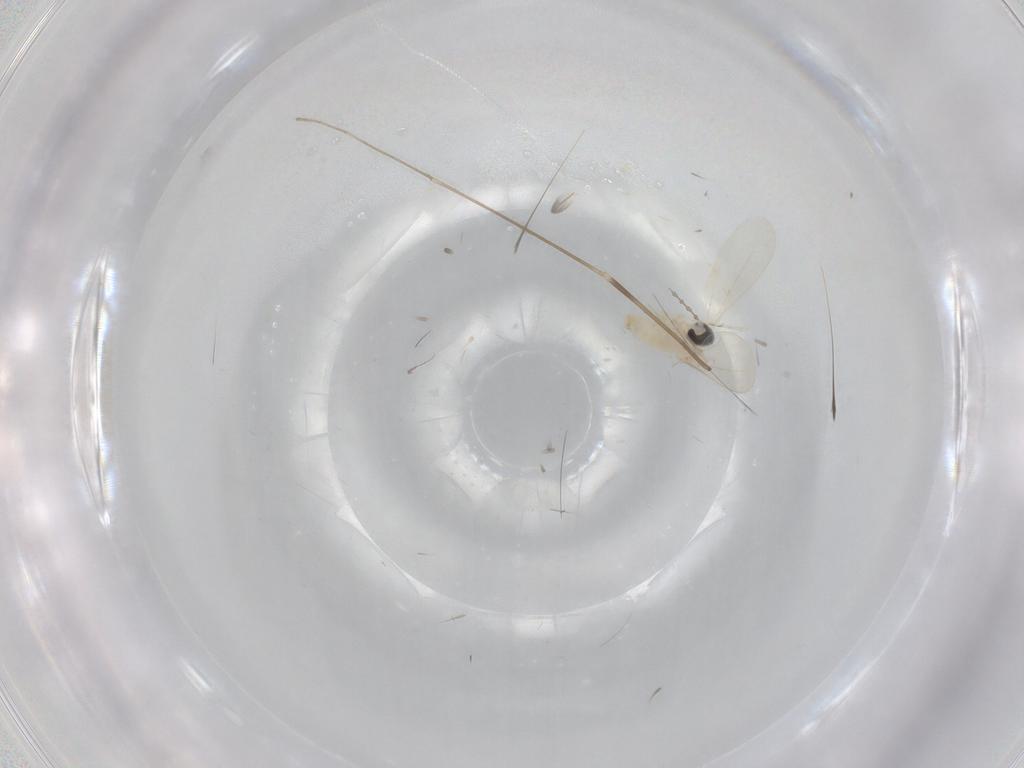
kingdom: Animalia
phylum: Arthropoda
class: Insecta
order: Diptera
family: Cecidomyiidae
